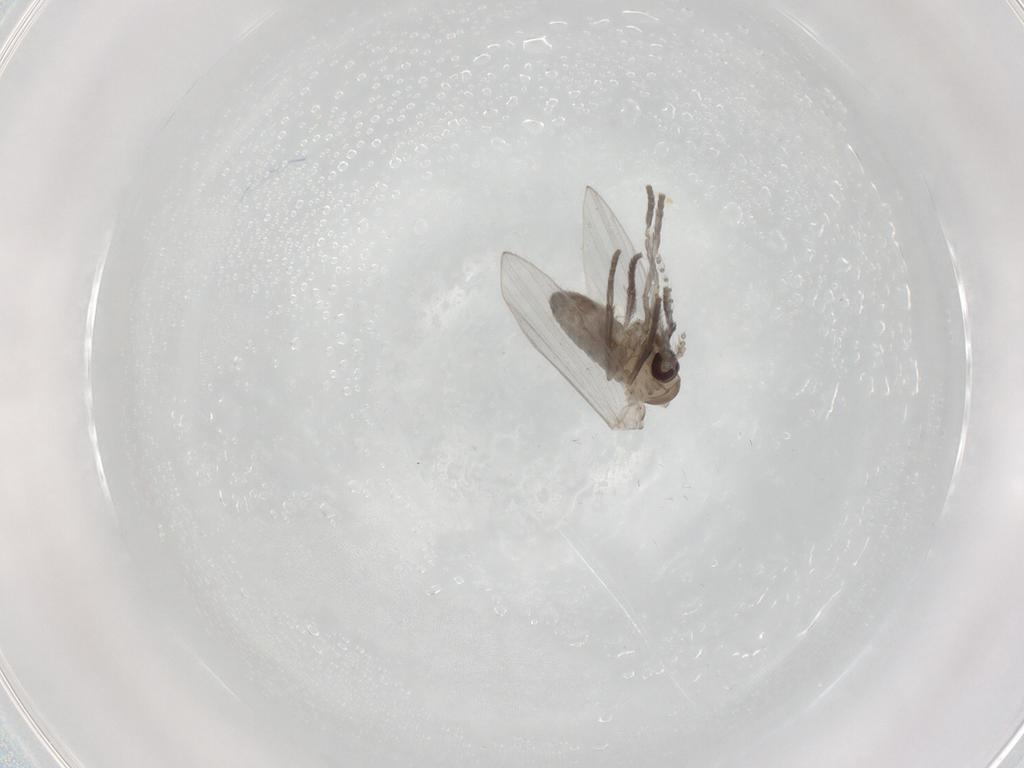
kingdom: Animalia
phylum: Arthropoda
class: Insecta
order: Diptera
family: Psychodidae
